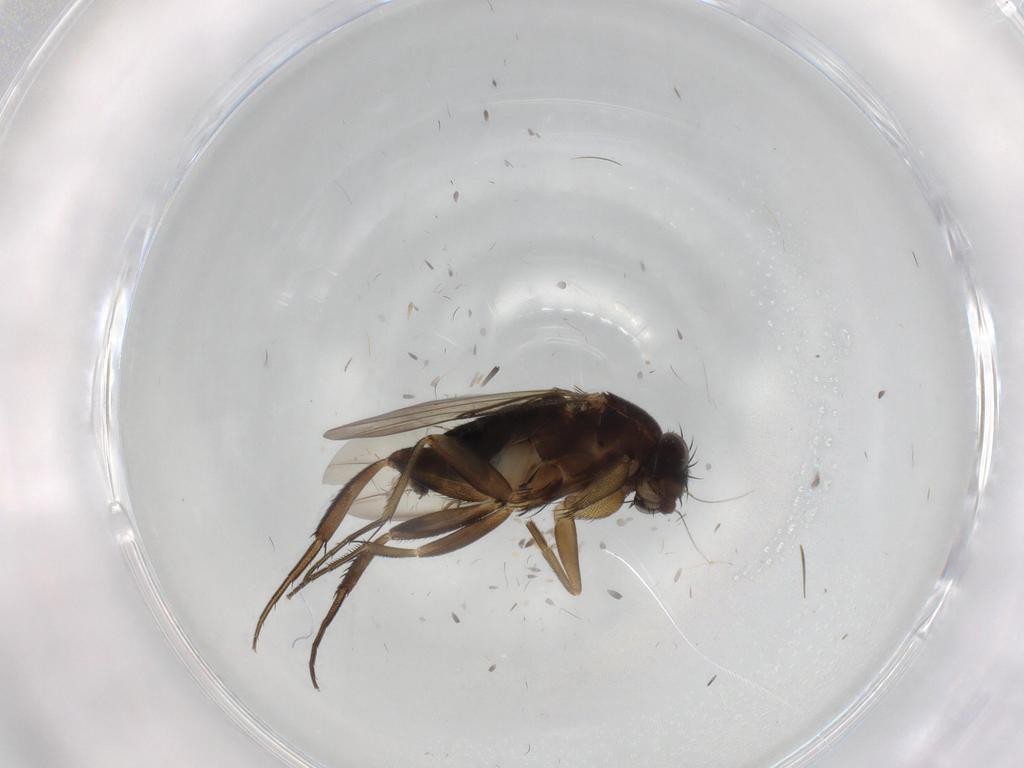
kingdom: Animalia
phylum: Arthropoda
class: Insecta
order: Diptera
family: Phoridae
